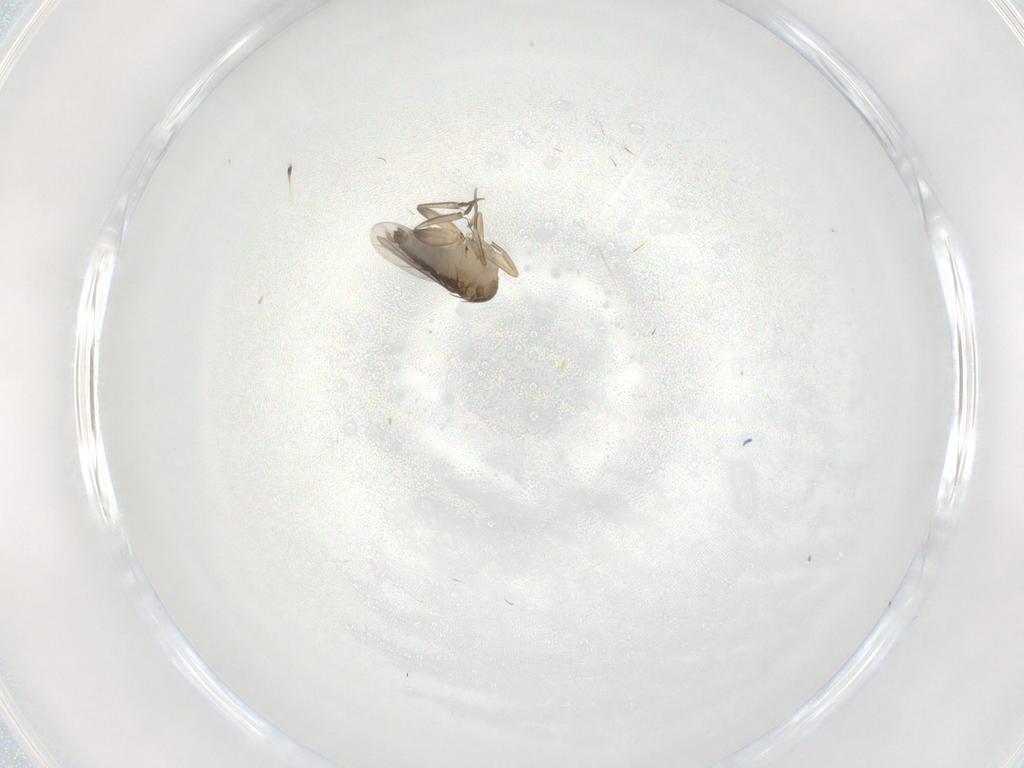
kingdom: Animalia
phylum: Arthropoda
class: Insecta
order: Diptera
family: Phoridae
